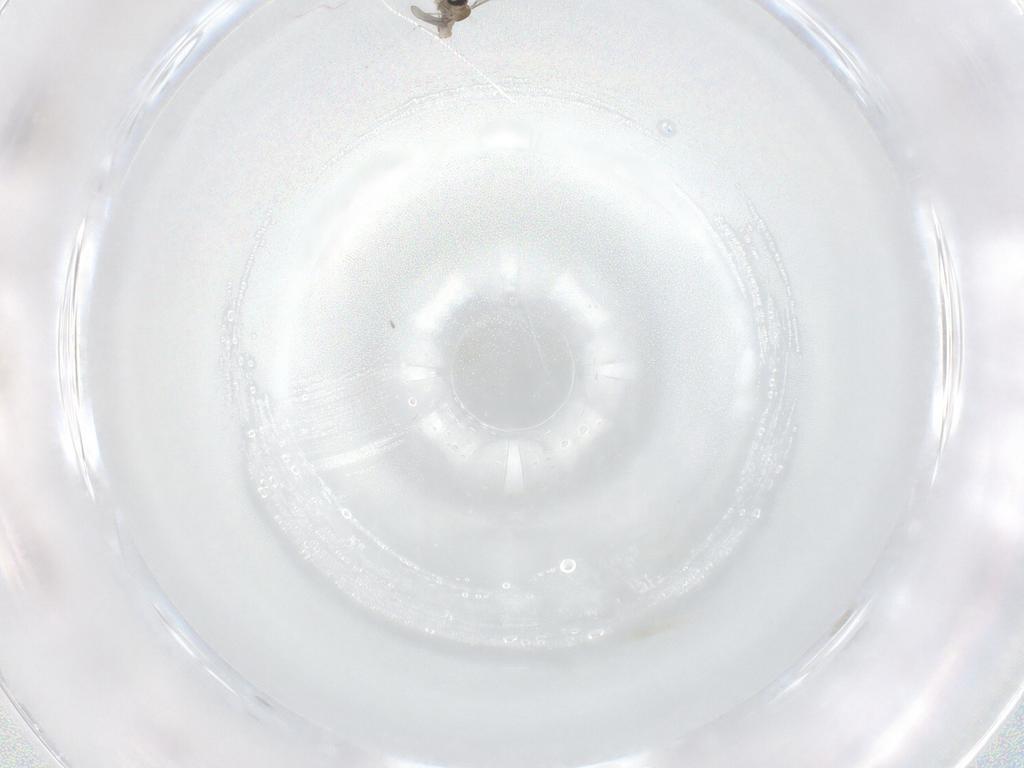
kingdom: Animalia
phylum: Arthropoda
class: Insecta
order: Diptera
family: Cecidomyiidae
